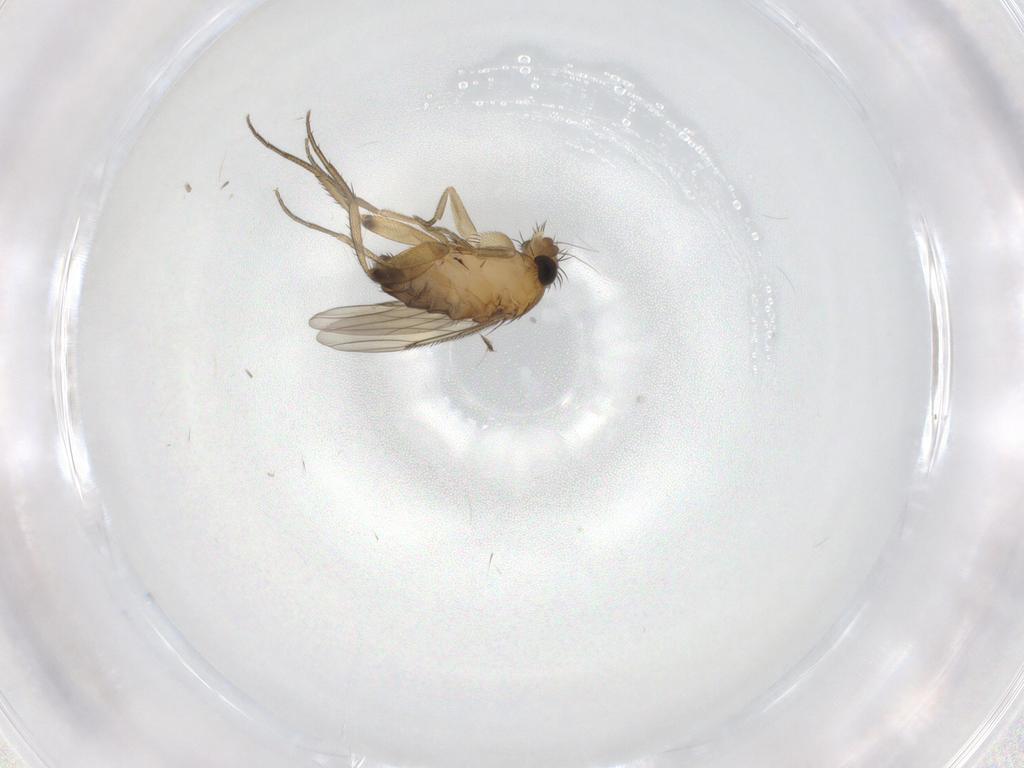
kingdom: Animalia
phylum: Arthropoda
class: Insecta
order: Diptera
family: Phoridae
